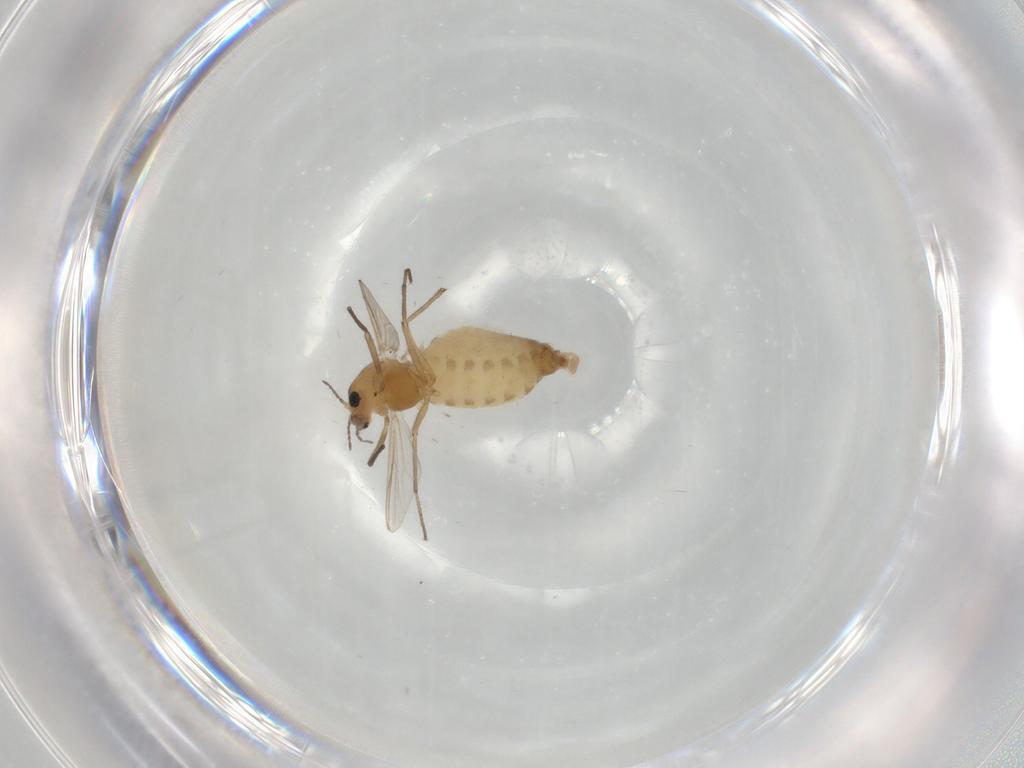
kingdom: Animalia
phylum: Arthropoda
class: Insecta
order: Diptera
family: Chironomidae
